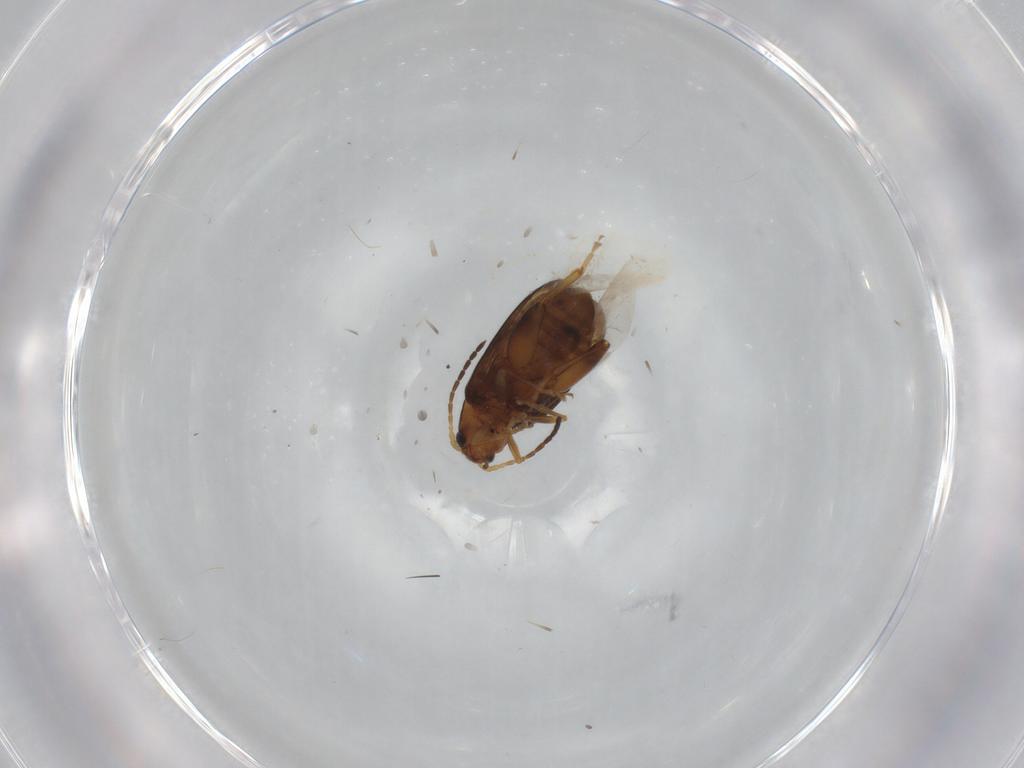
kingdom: Animalia
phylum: Arthropoda
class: Insecta
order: Coleoptera
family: Chrysomelidae
